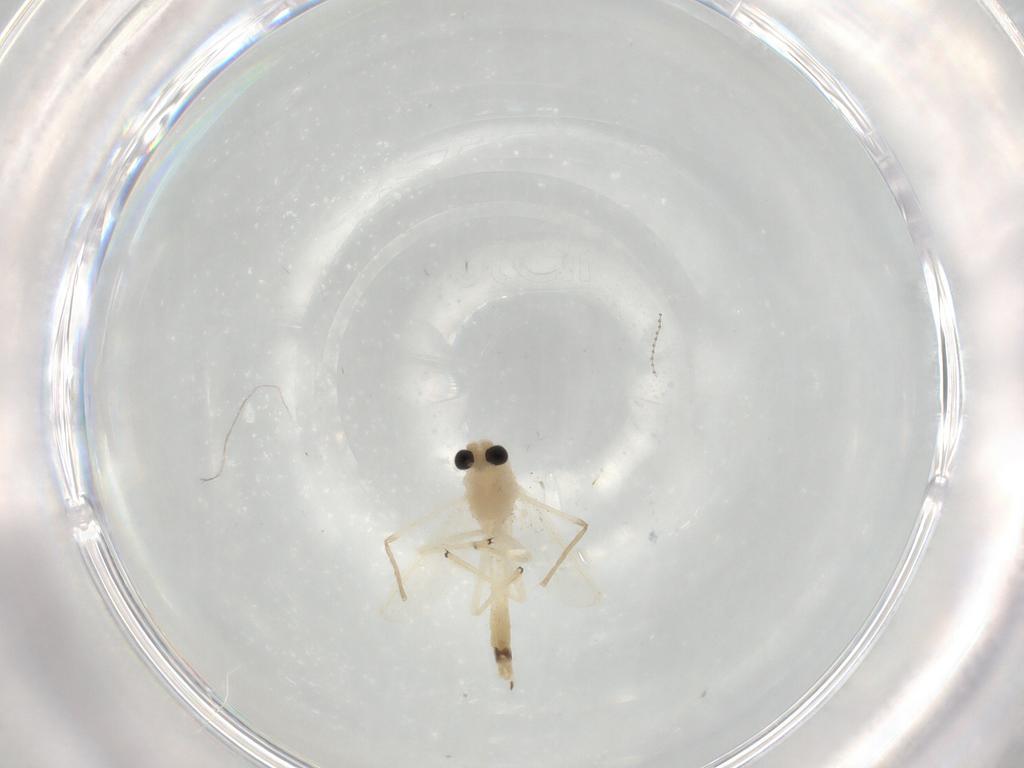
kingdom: Animalia
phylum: Arthropoda
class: Insecta
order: Diptera
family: Chironomidae
